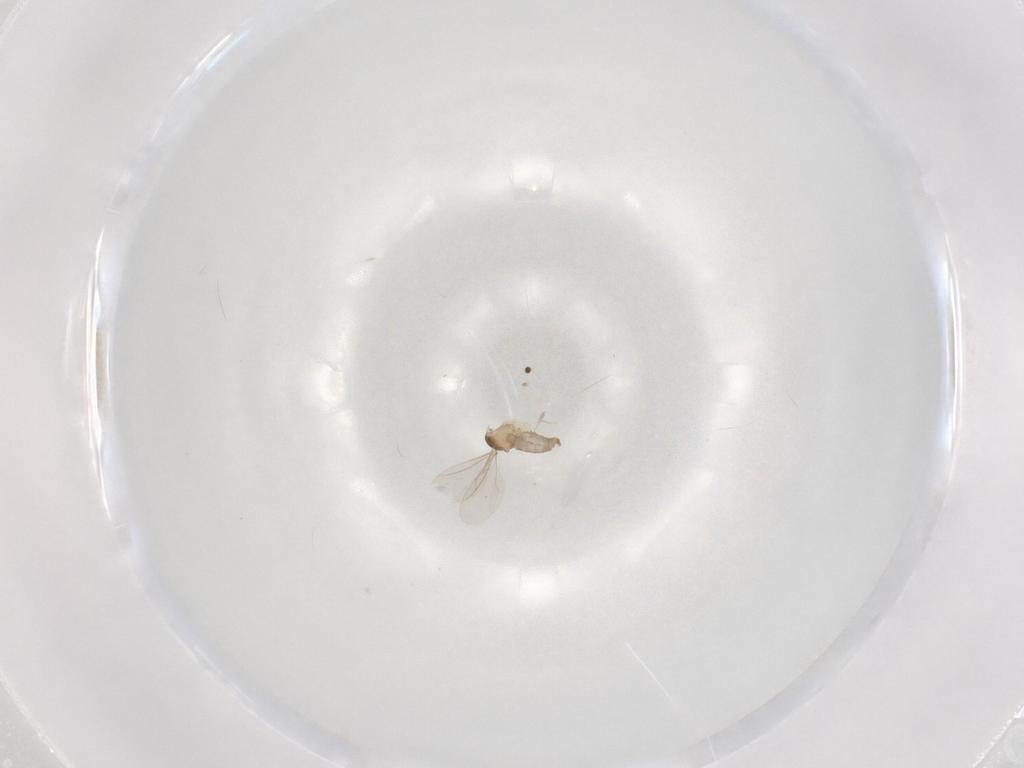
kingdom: Animalia
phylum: Arthropoda
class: Insecta
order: Diptera
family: Cecidomyiidae
